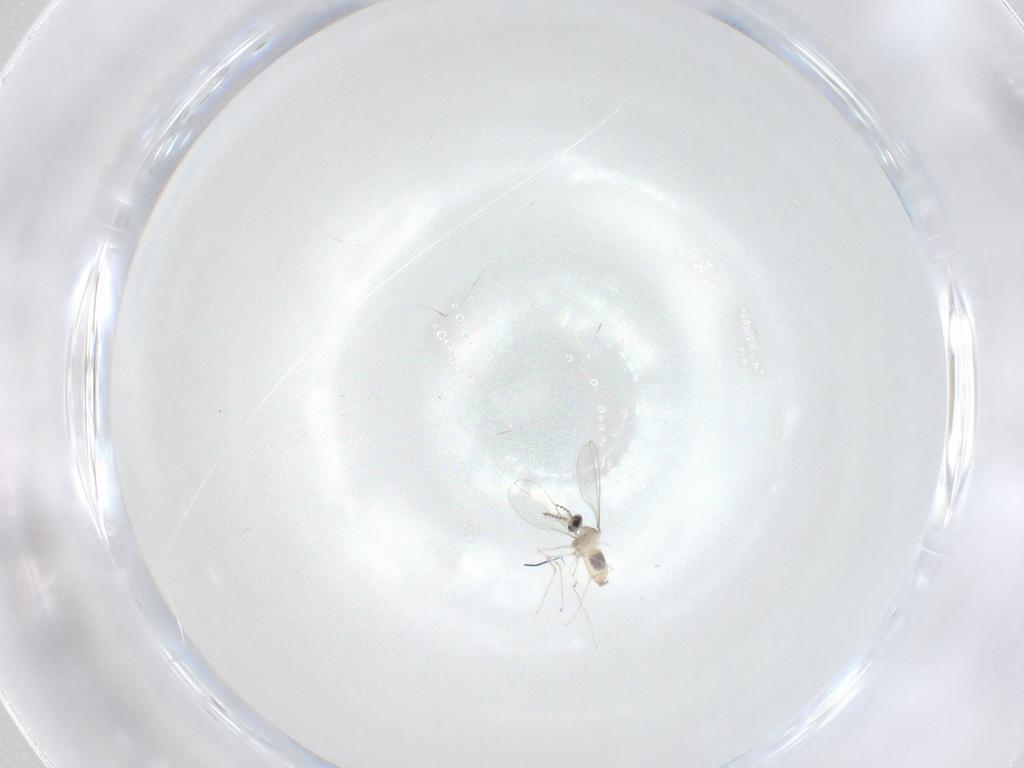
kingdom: Animalia
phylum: Arthropoda
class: Insecta
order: Diptera
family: Cecidomyiidae
